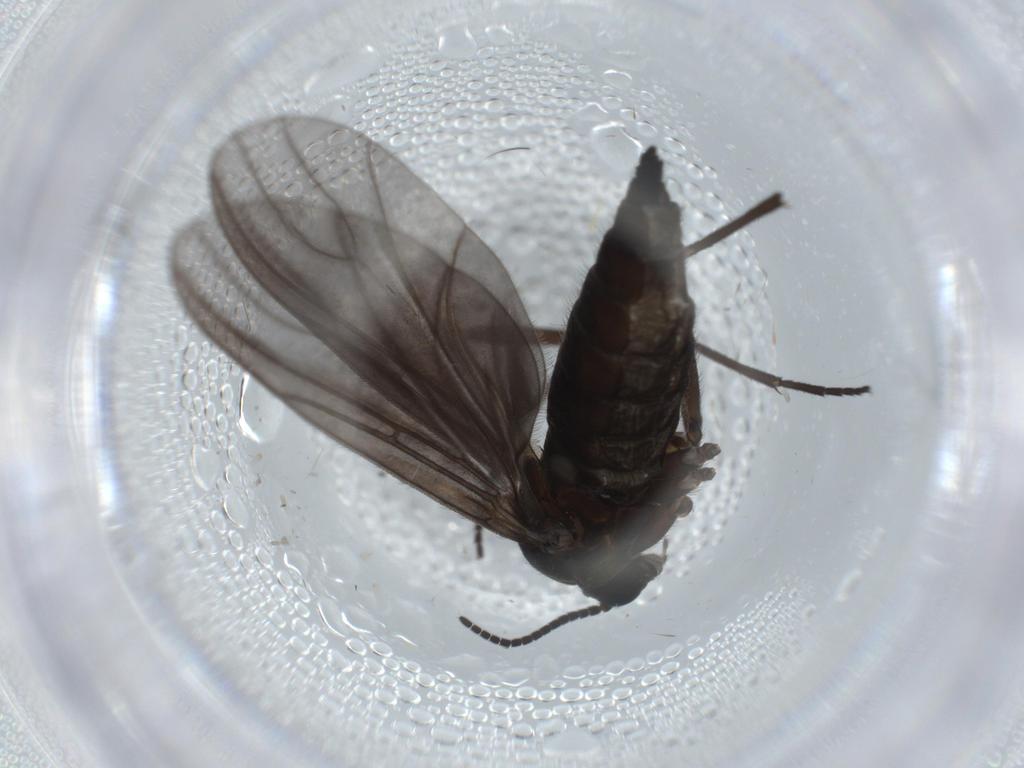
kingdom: Animalia
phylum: Arthropoda
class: Insecta
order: Diptera
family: Sciaridae
